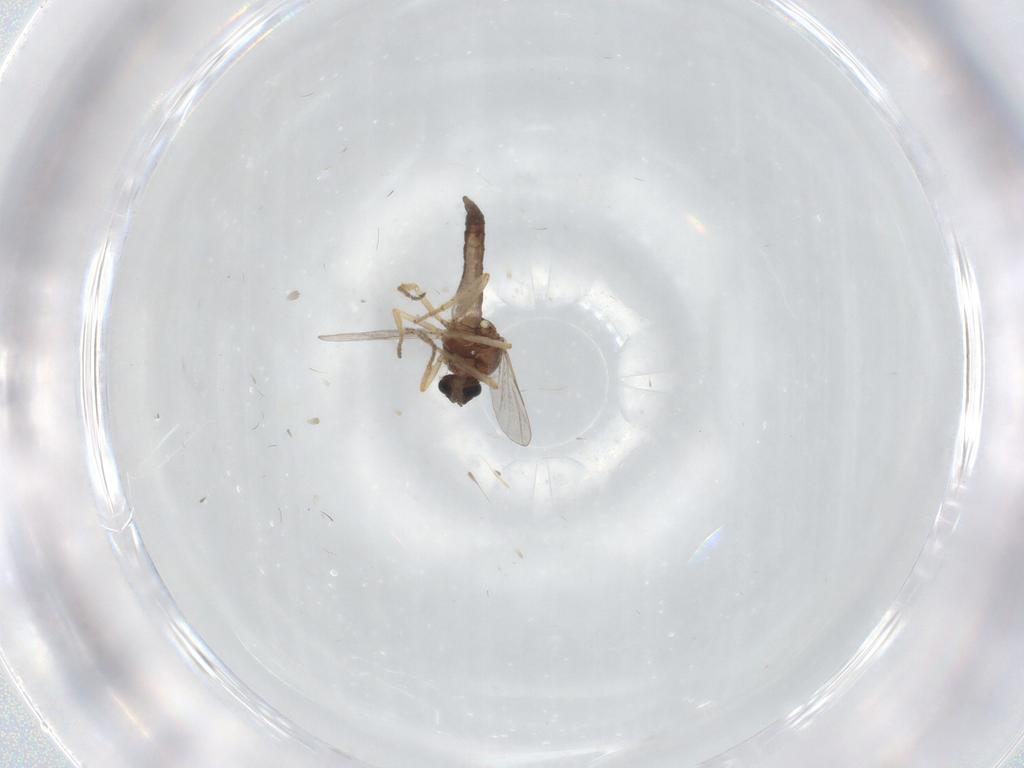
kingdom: Animalia
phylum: Arthropoda
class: Insecta
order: Diptera
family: Ceratopogonidae
